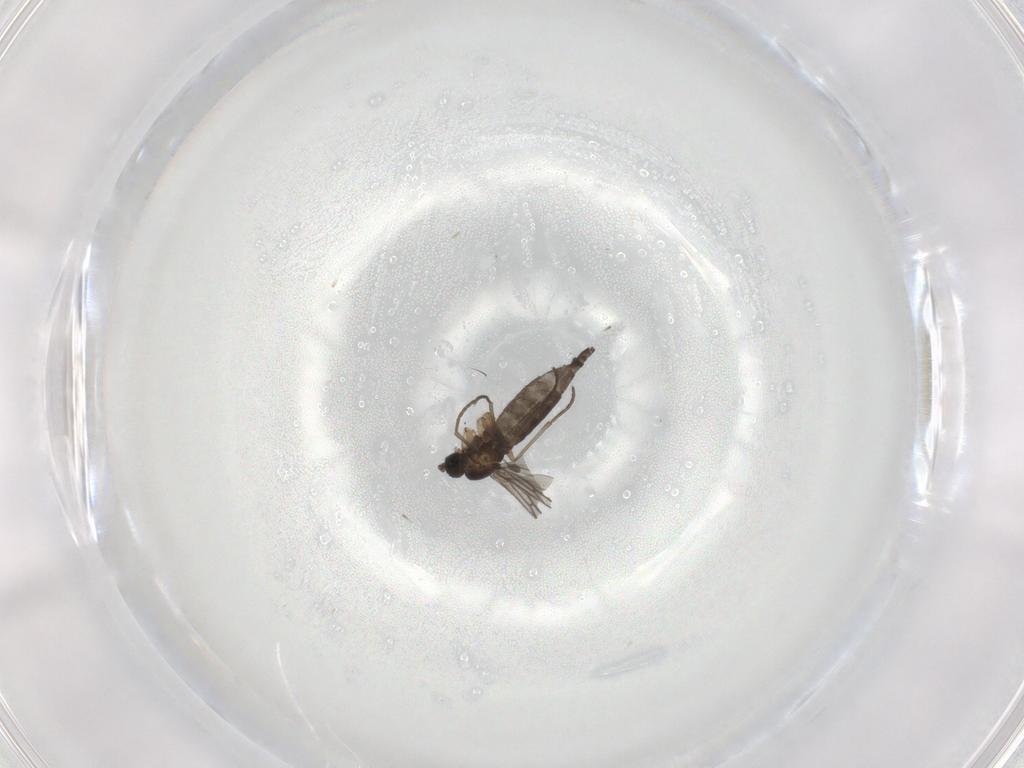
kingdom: Animalia
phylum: Arthropoda
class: Insecta
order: Diptera
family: Sciaridae
